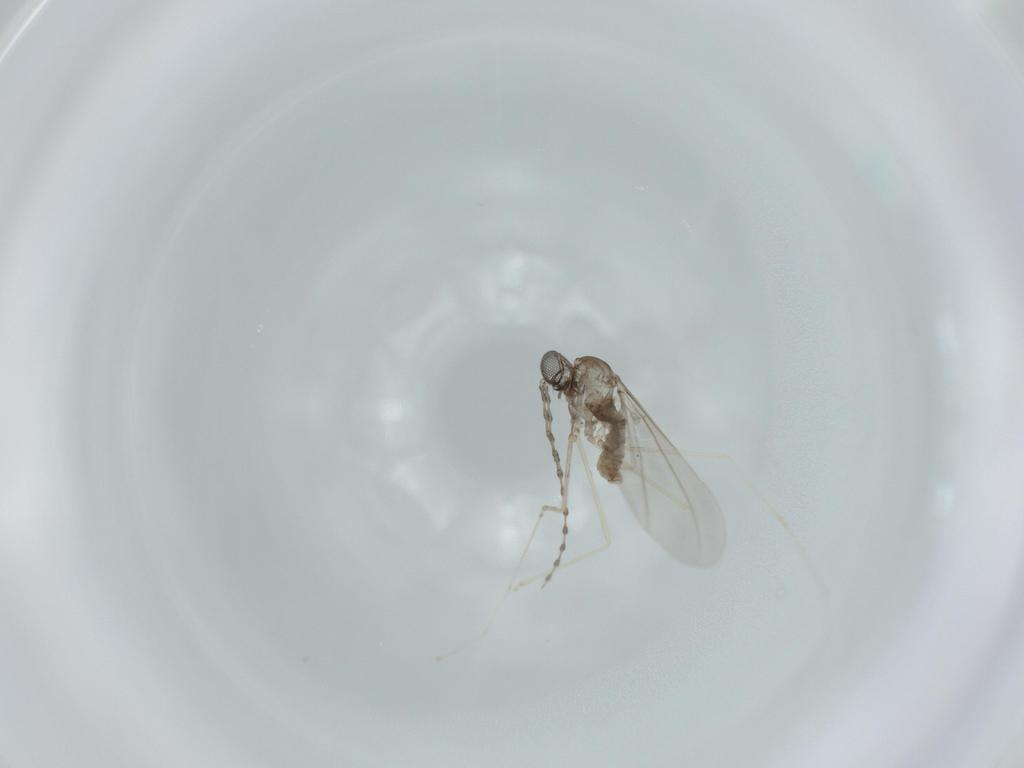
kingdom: Animalia
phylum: Arthropoda
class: Insecta
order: Diptera
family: Cecidomyiidae
